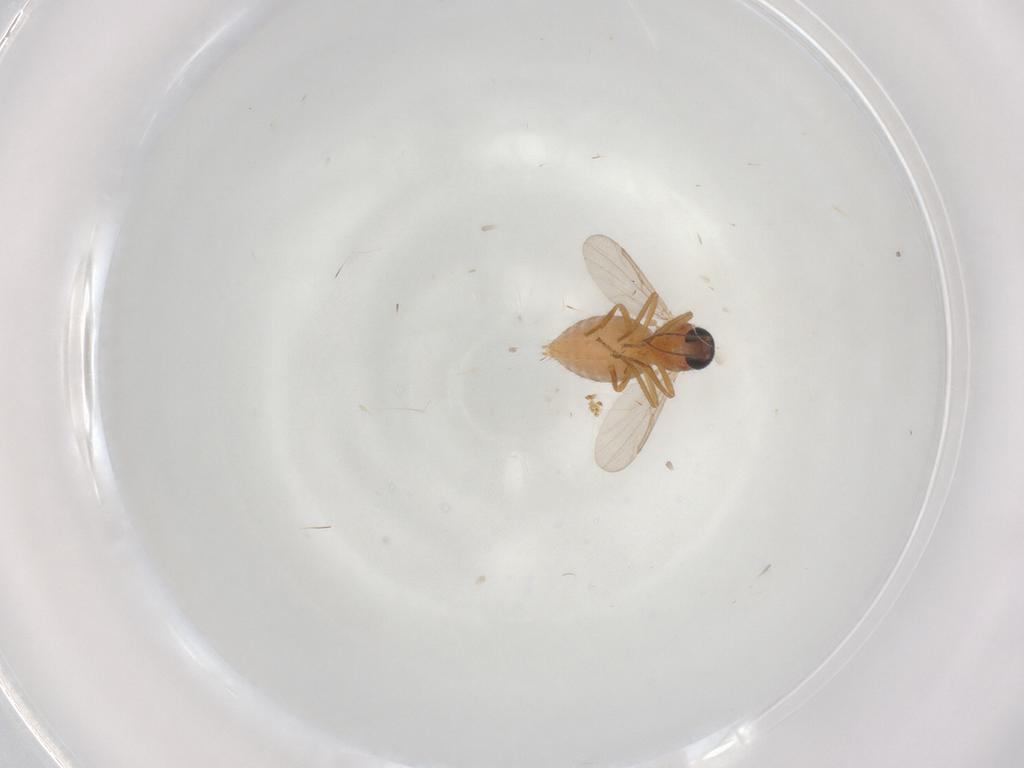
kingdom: Animalia
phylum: Arthropoda
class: Insecta
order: Diptera
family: Ceratopogonidae
